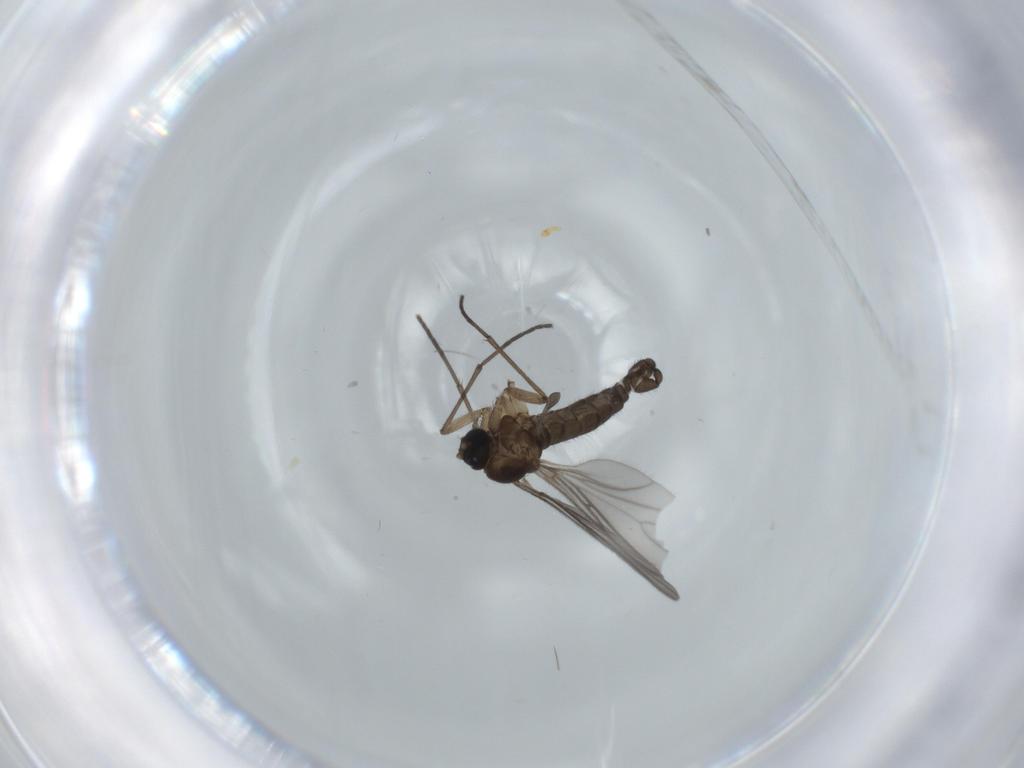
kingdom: Animalia
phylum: Arthropoda
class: Insecta
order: Diptera
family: Sciaridae
